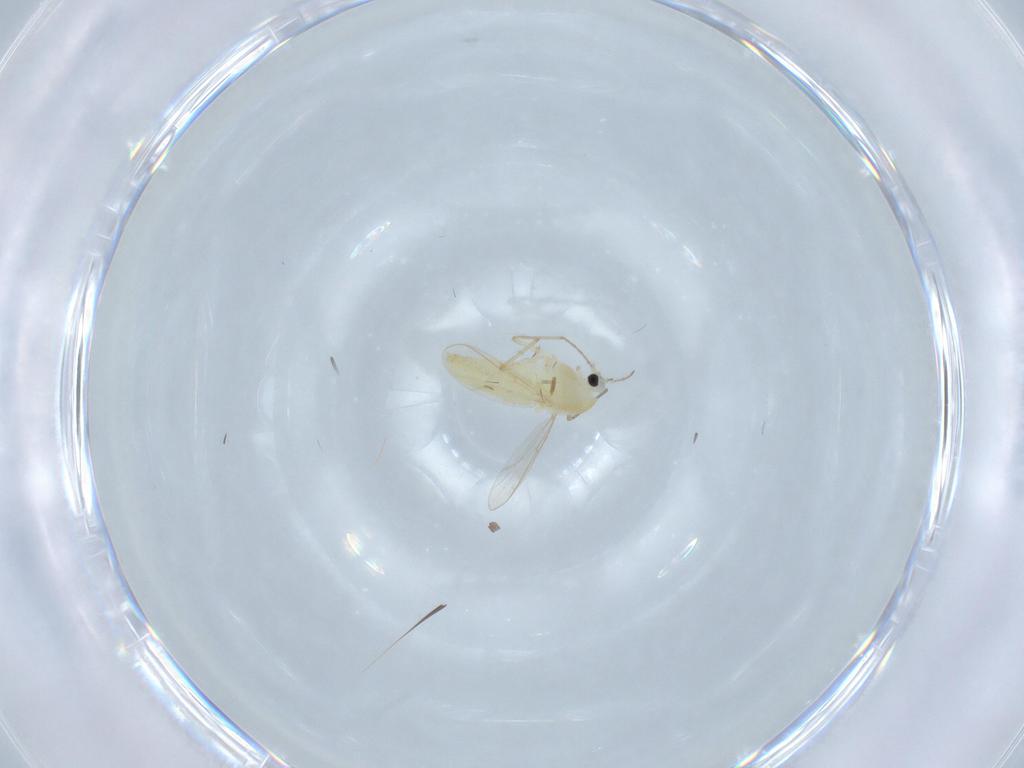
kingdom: Animalia
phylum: Arthropoda
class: Insecta
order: Diptera
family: Chironomidae
